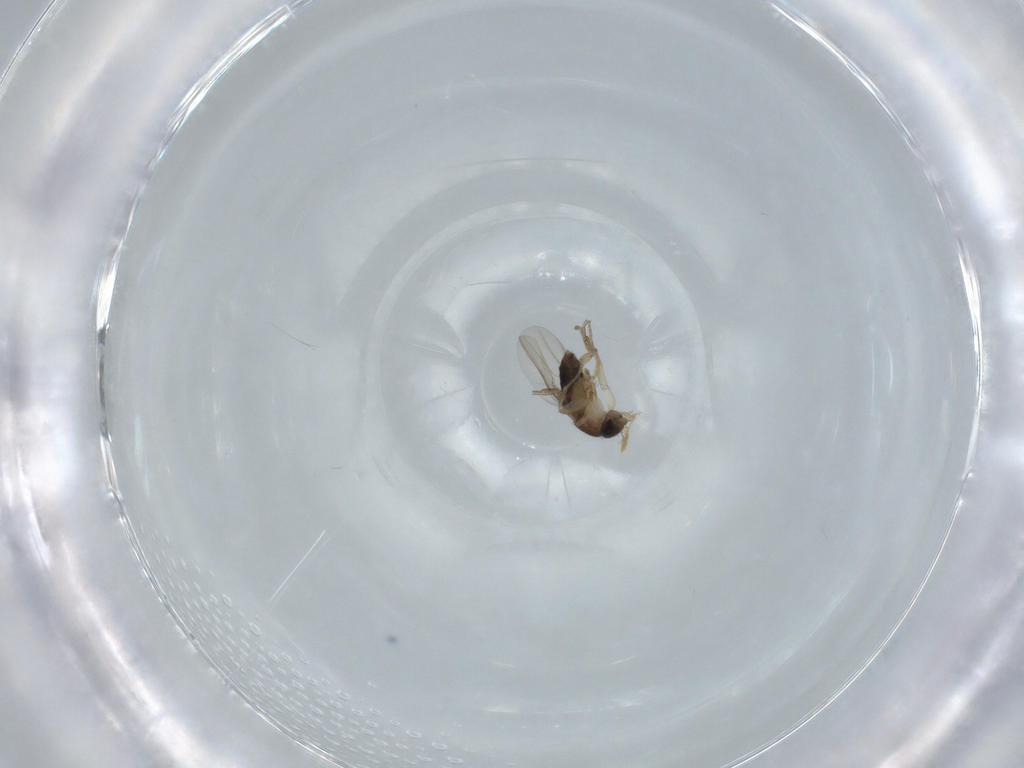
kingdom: Animalia
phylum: Arthropoda
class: Insecta
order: Diptera
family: Phoridae
